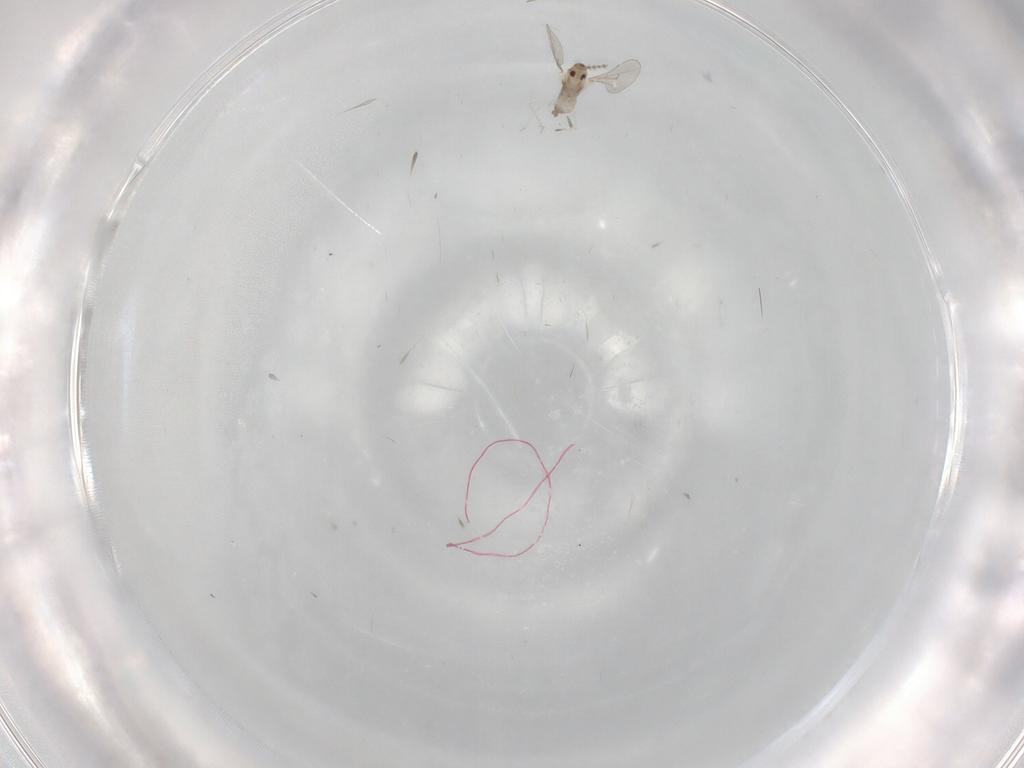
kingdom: Animalia
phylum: Arthropoda
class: Insecta
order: Diptera
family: Cecidomyiidae
